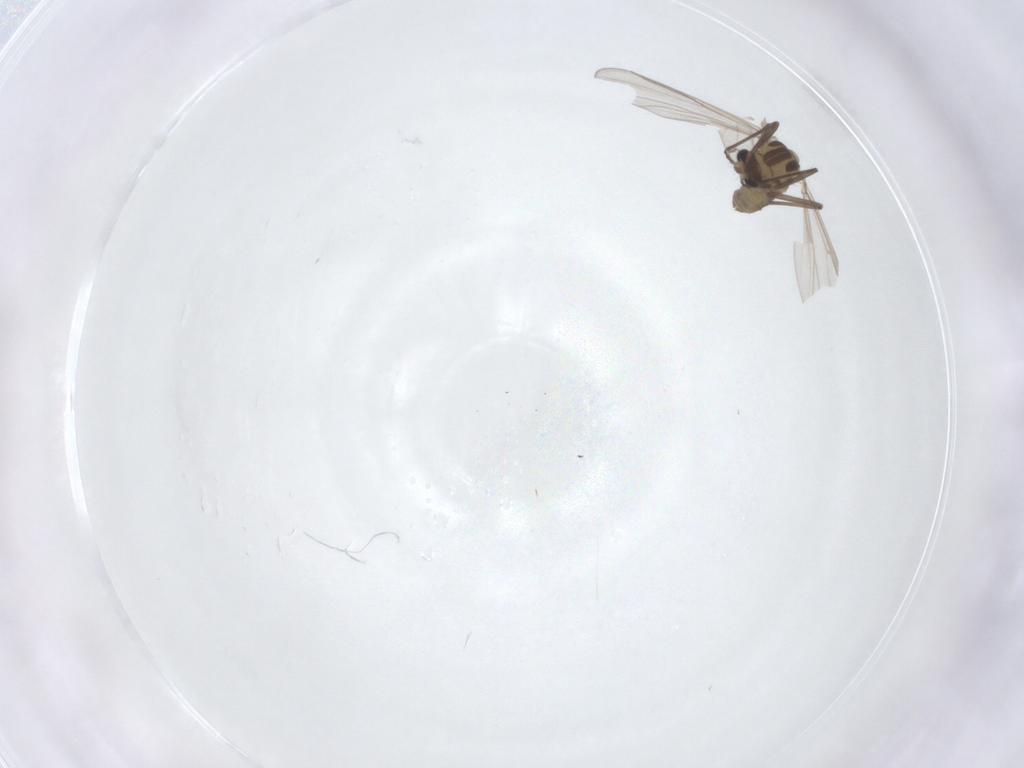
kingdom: Animalia
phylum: Arthropoda
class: Insecta
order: Diptera
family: Chironomidae
